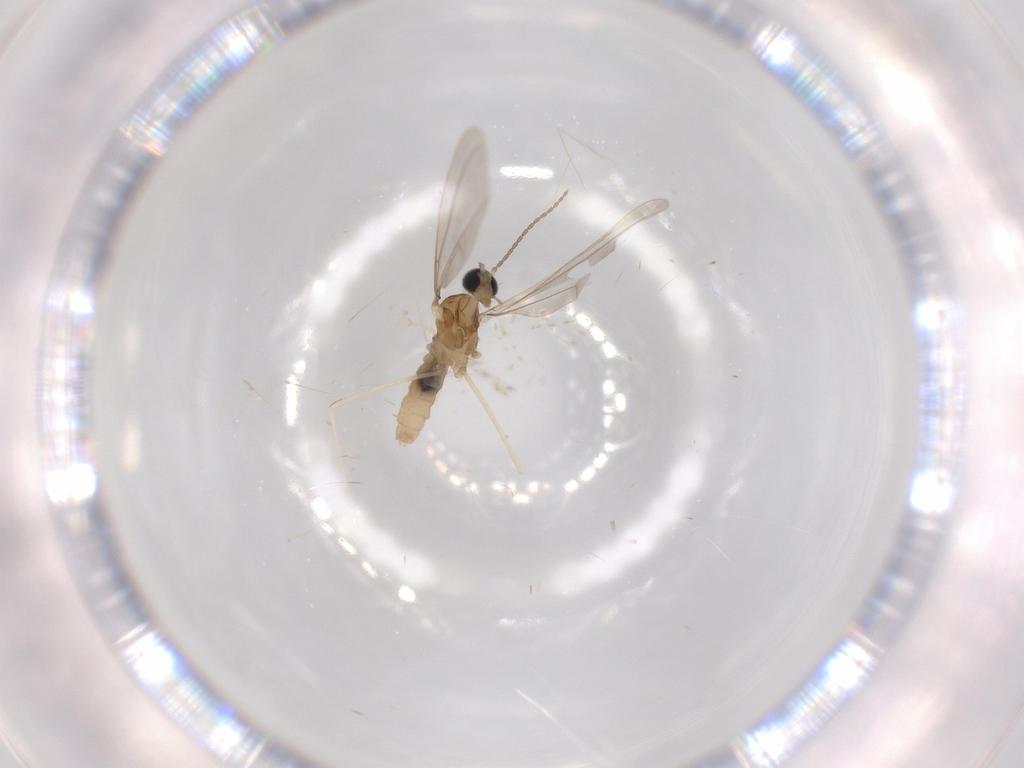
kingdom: Animalia
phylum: Arthropoda
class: Insecta
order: Diptera
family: Cecidomyiidae
